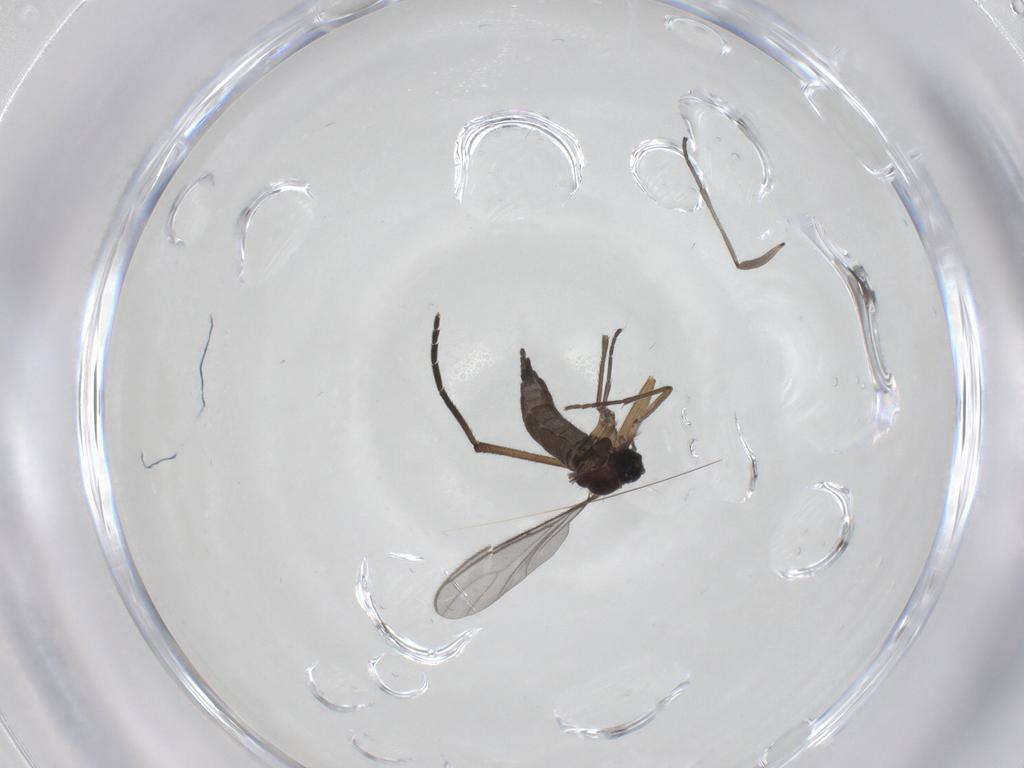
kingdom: Animalia
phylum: Arthropoda
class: Insecta
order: Diptera
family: Sciaridae
